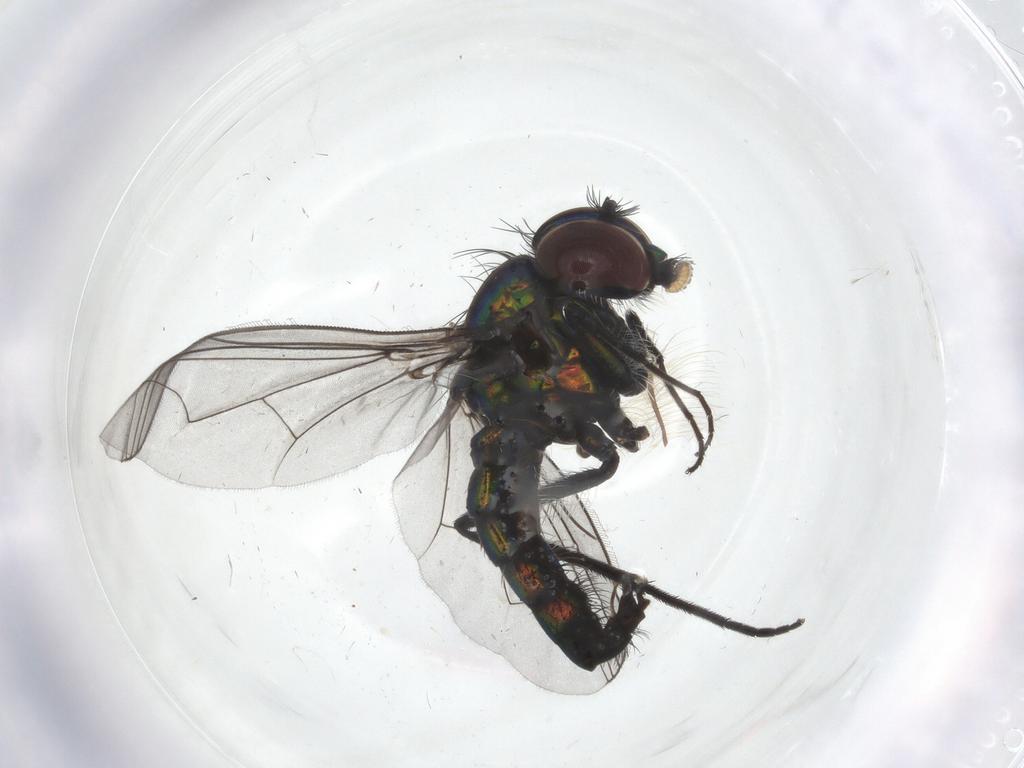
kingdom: Animalia
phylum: Arthropoda
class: Insecta
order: Diptera
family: Dolichopodidae
